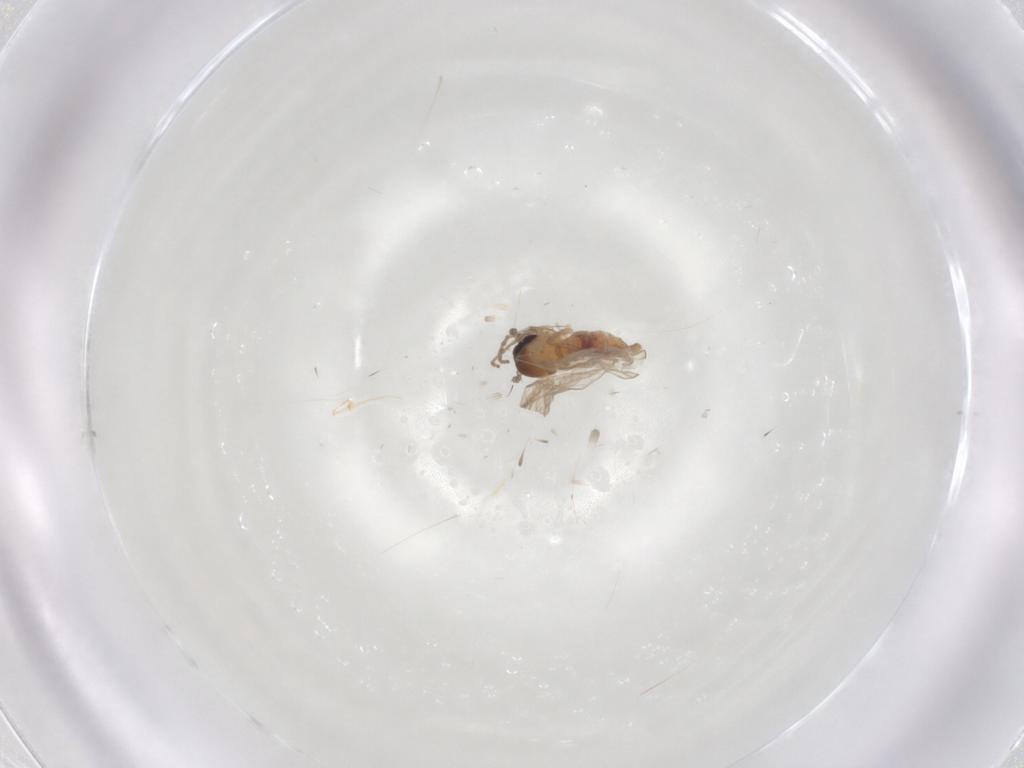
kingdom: Animalia
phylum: Arthropoda
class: Insecta
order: Diptera
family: Psychodidae
